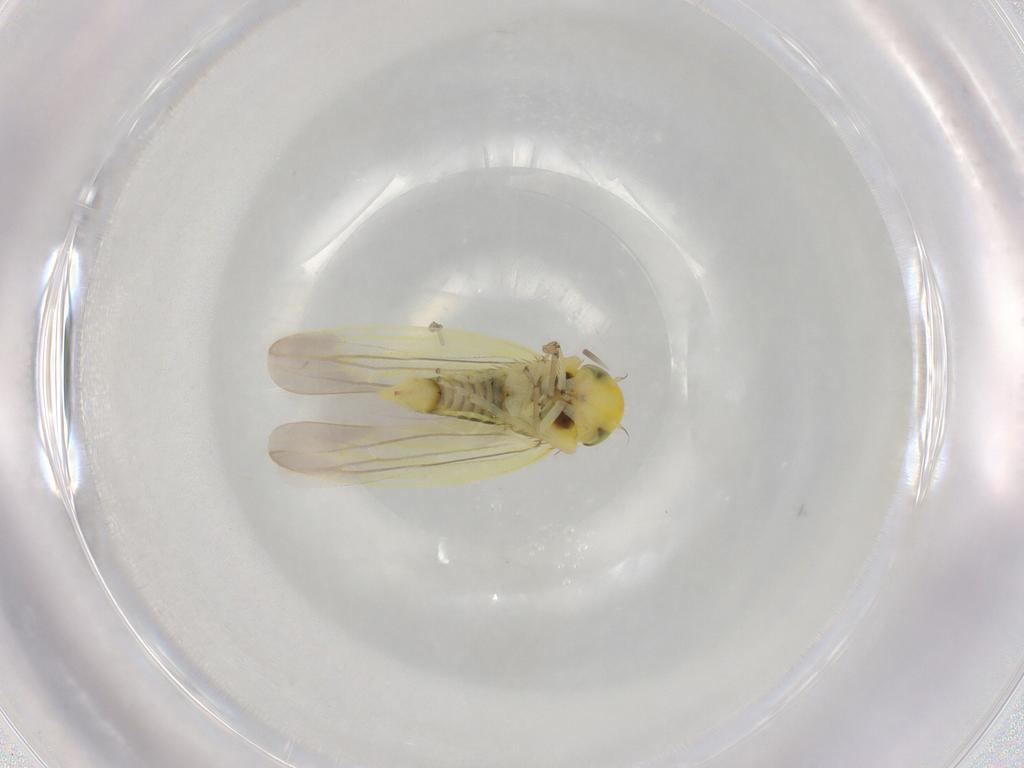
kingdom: Animalia
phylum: Arthropoda
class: Insecta
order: Hemiptera
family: Cicadellidae
